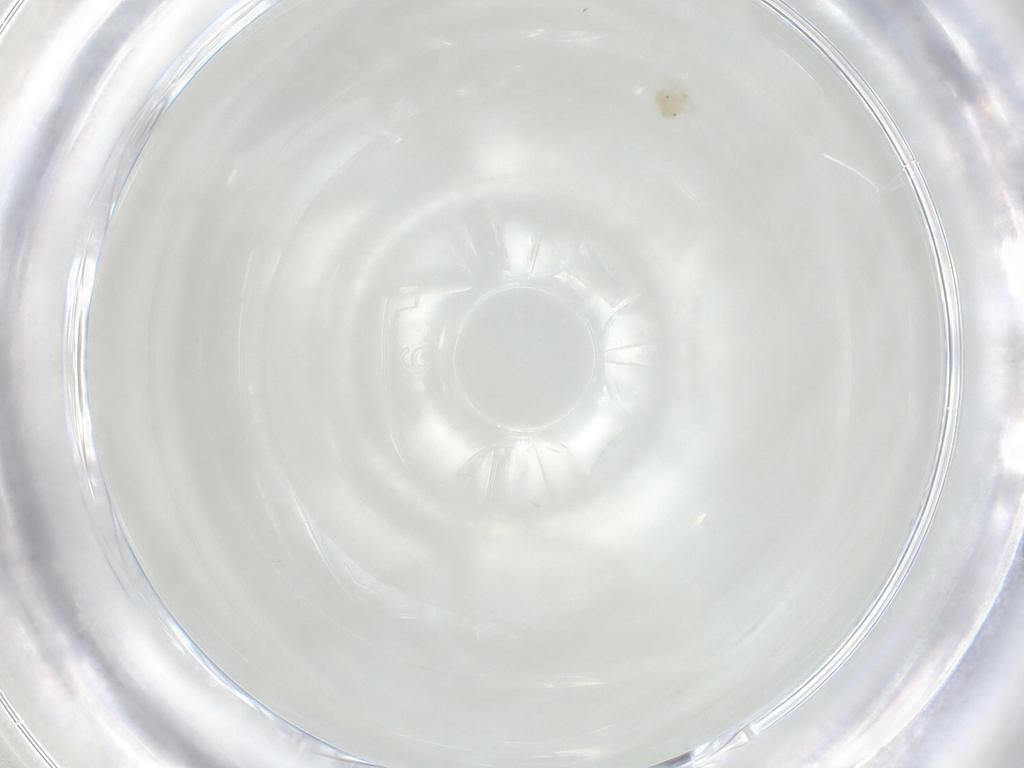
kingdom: Animalia
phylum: Arthropoda
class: Arachnida
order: Trombidiformes
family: Anystidae
